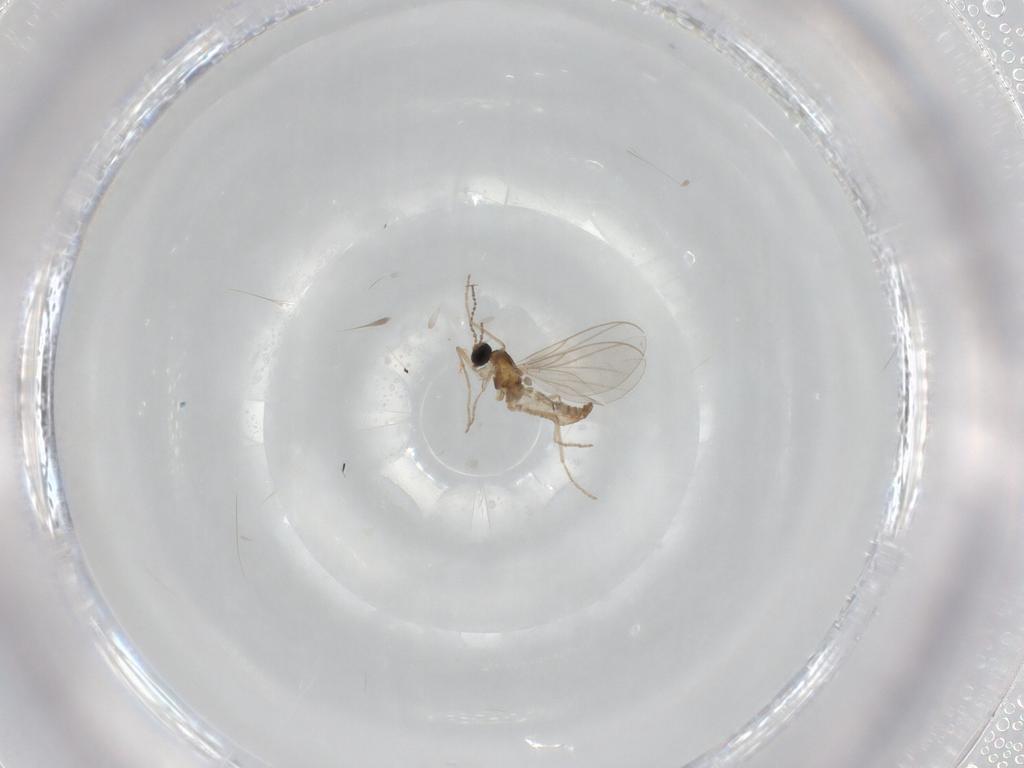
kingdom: Animalia
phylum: Arthropoda
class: Insecta
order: Diptera
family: Cecidomyiidae
